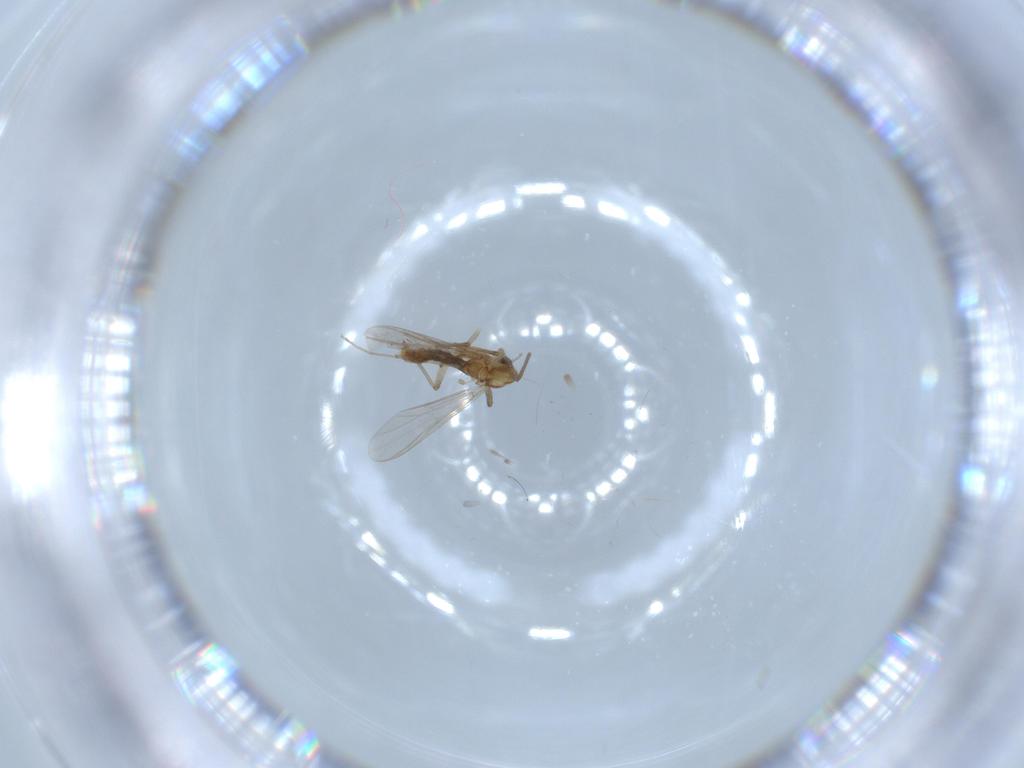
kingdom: Animalia
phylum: Arthropoda
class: Insecta
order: Diptera
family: Chironomidae
